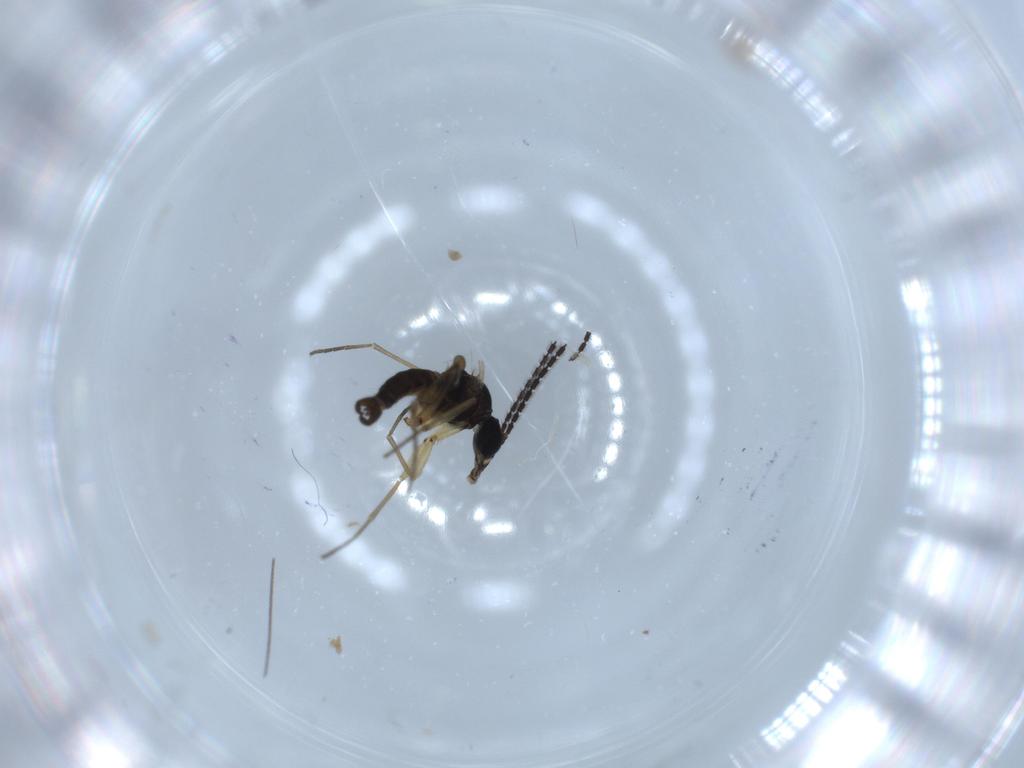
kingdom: Animalia
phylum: Arthropoda
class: Insecta
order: Diptera
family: Sciaridae
